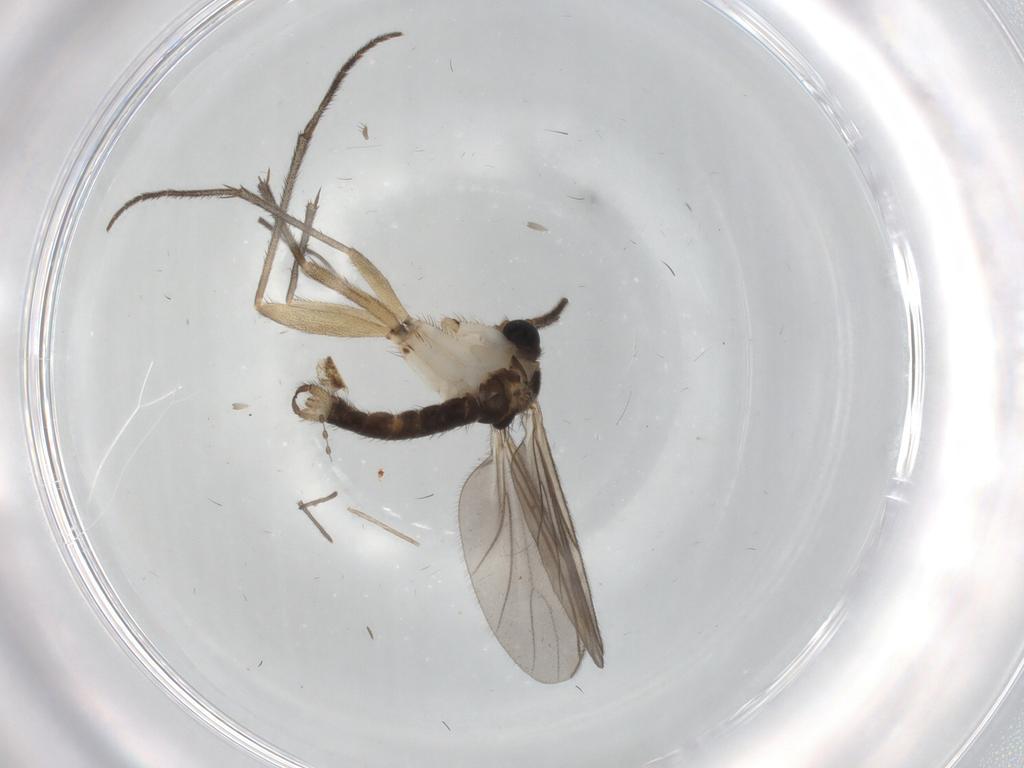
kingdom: Animalia
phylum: Arthropoda
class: Insecta
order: Diptera
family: Sciaridae
